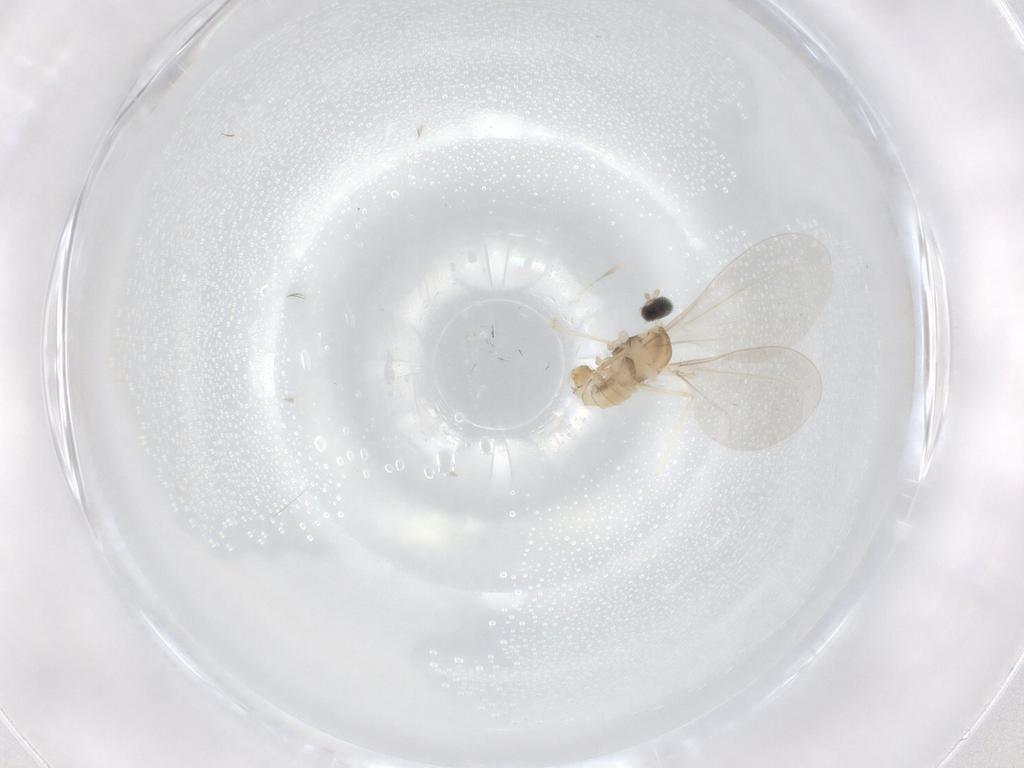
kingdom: Animalia
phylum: Arthropoda
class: Insecta
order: Diptera
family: Cecidomyiidae
